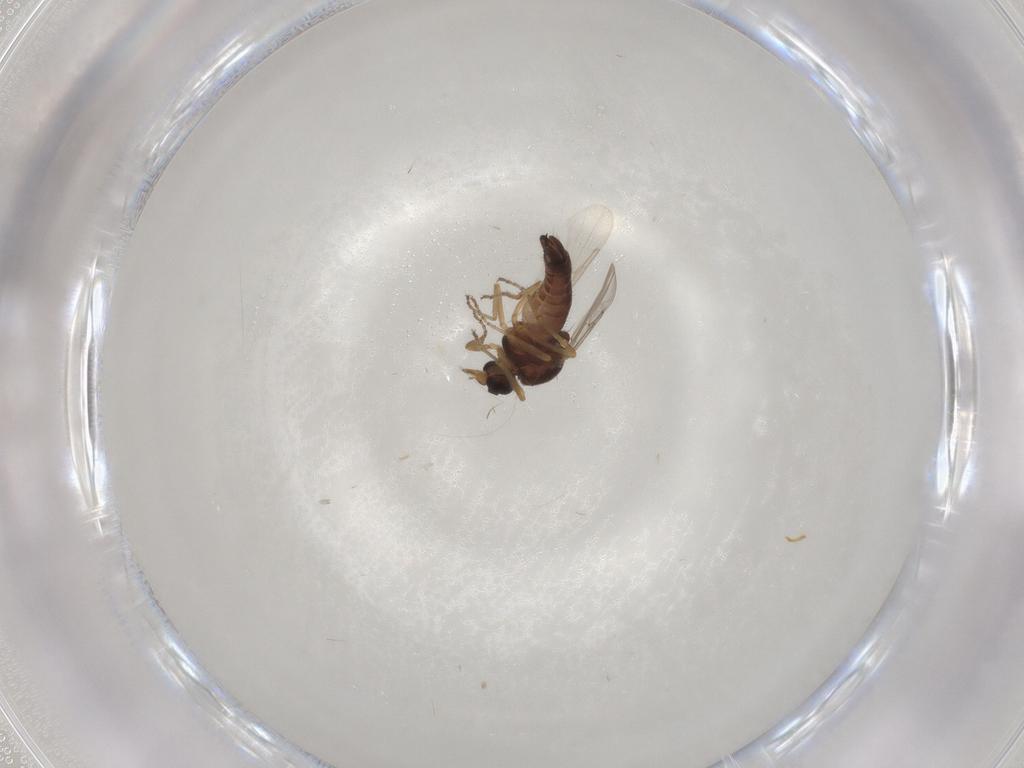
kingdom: Animalia
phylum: Arthropoda
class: Insecta
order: Diptera
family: Ceratopogonidae
